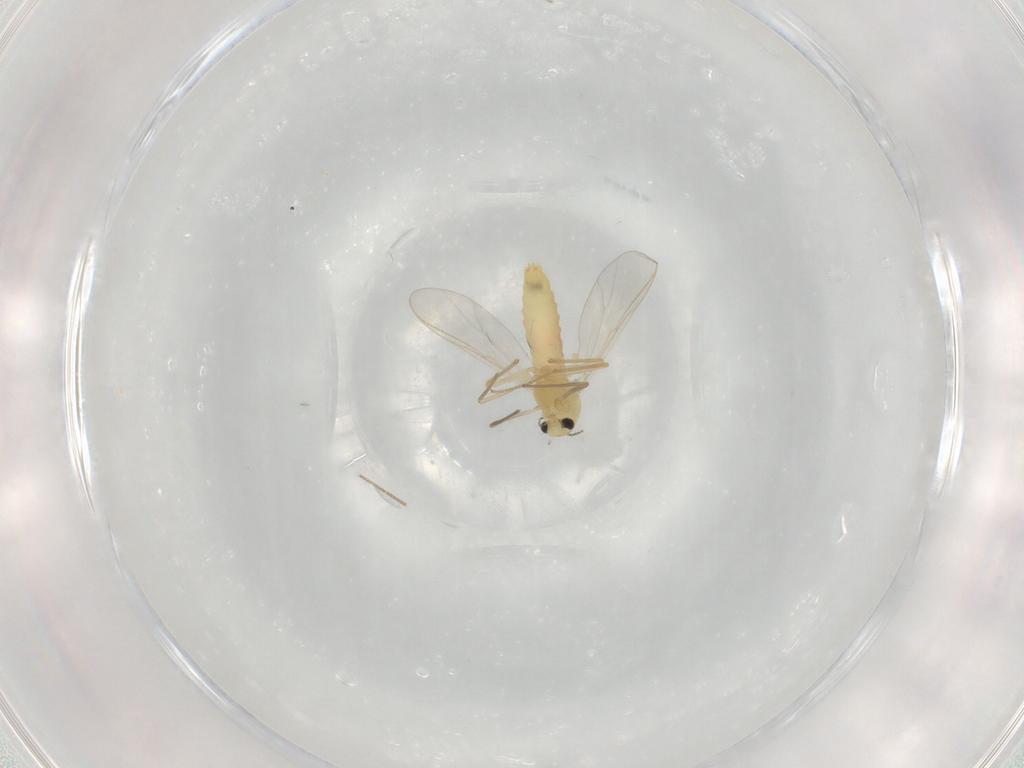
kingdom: Animalia
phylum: Arthropoda
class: Insecta
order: Diptera
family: Chironomidae
